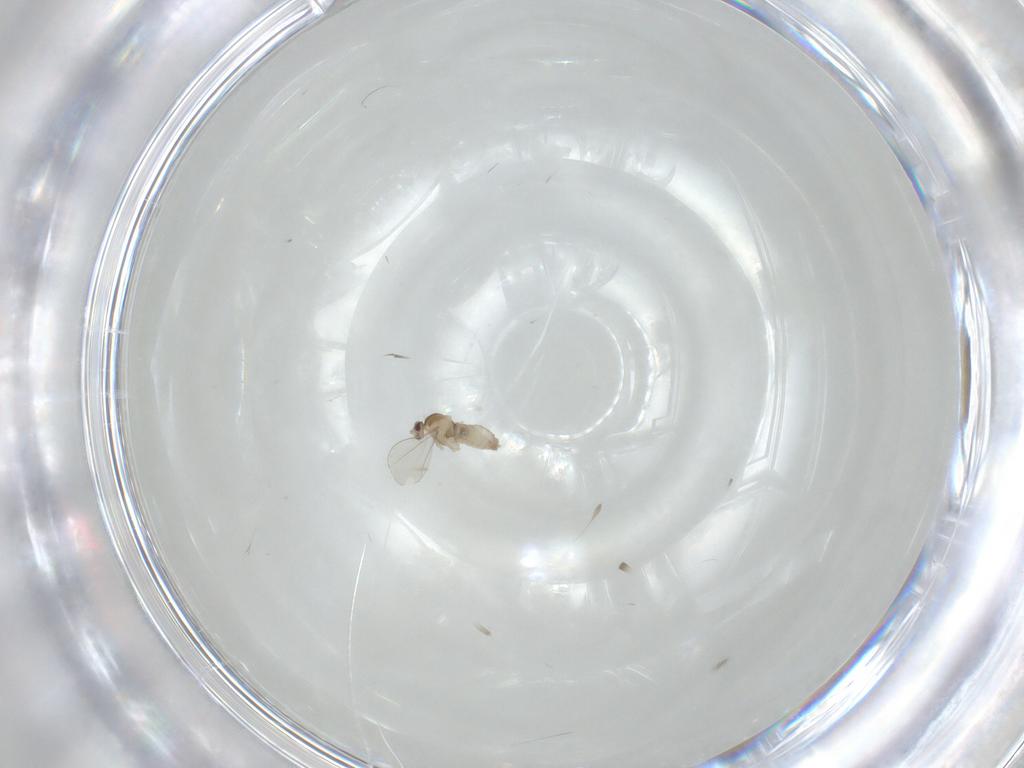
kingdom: Animalia
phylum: Arthropoda
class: Insecta
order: Diptera
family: Cecidomyiidae
